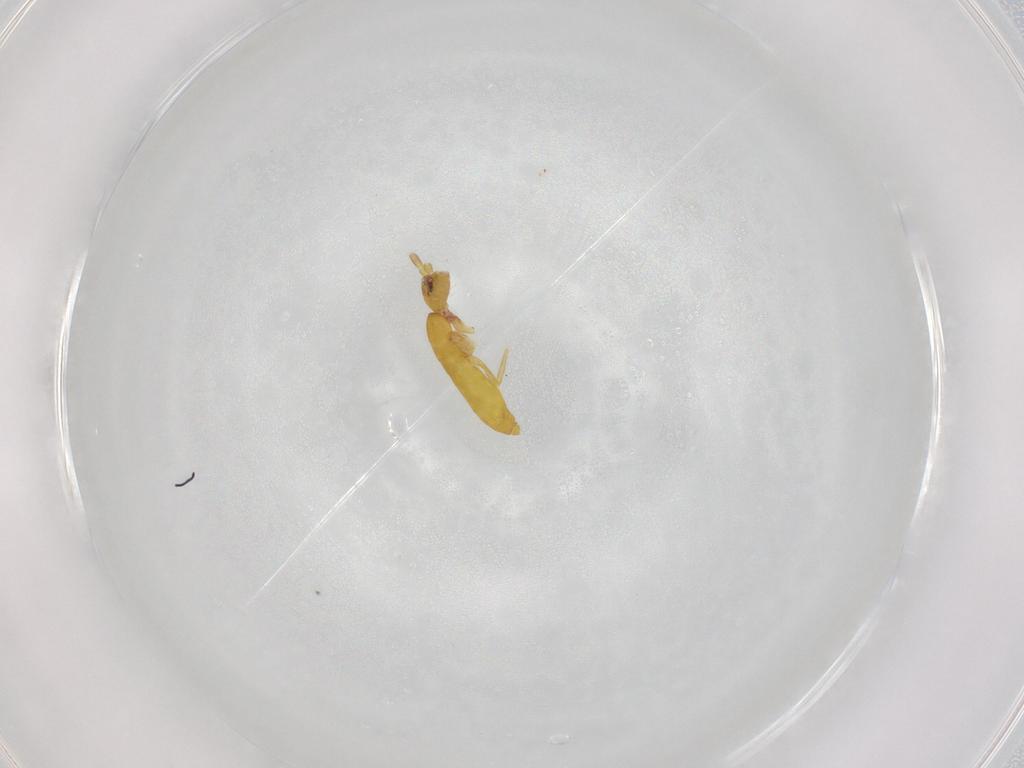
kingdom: Animalia
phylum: Arthropoda
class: Collembola
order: Entomobryomorpha
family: Tomoceridae
